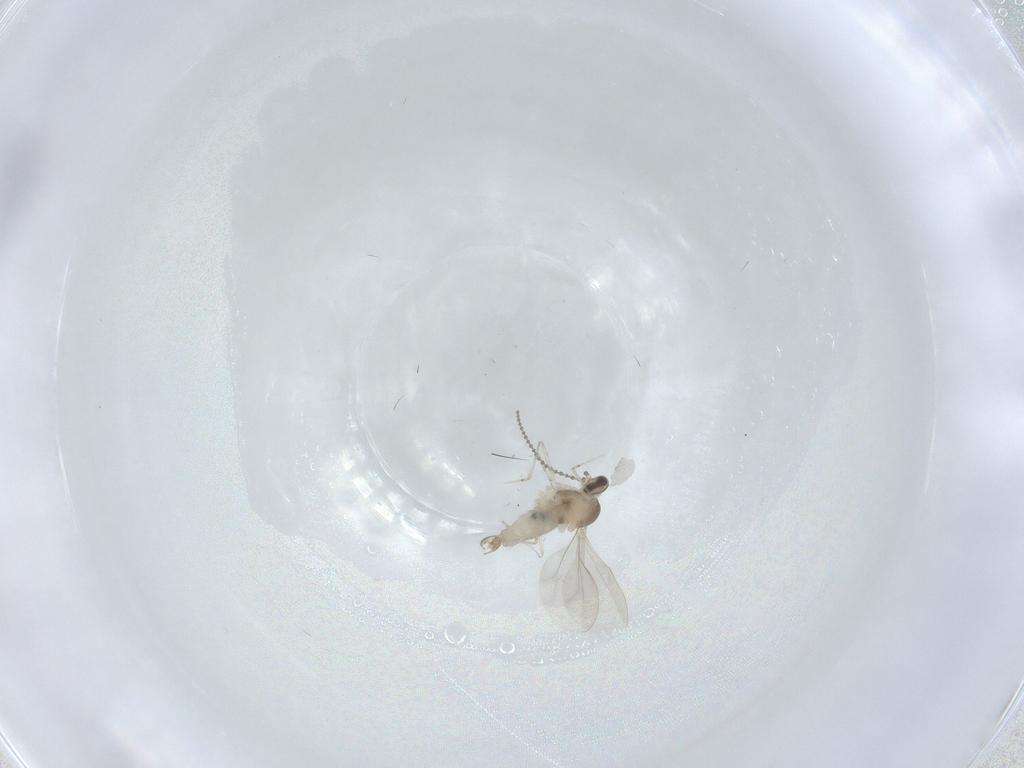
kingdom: Animalia
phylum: Arthropoda
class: Insecta
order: Diptera
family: Cecidomyiidae
